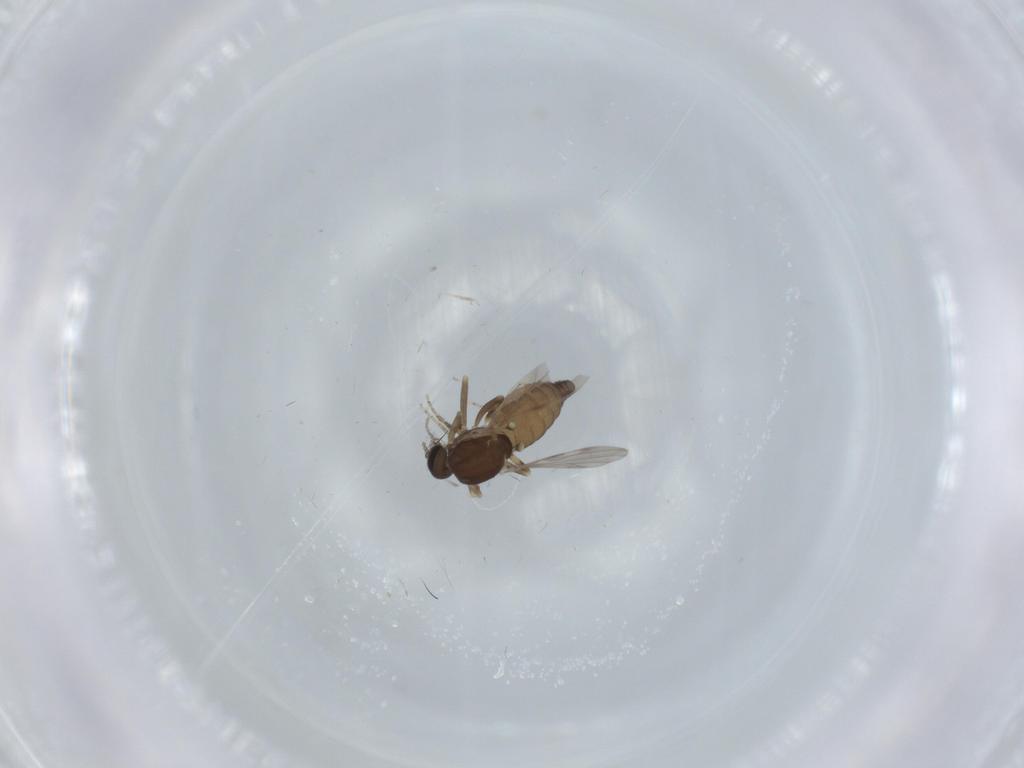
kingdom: Animalia
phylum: Arthropoda
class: Insecta
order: Diptera
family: Ceratopogonidae
